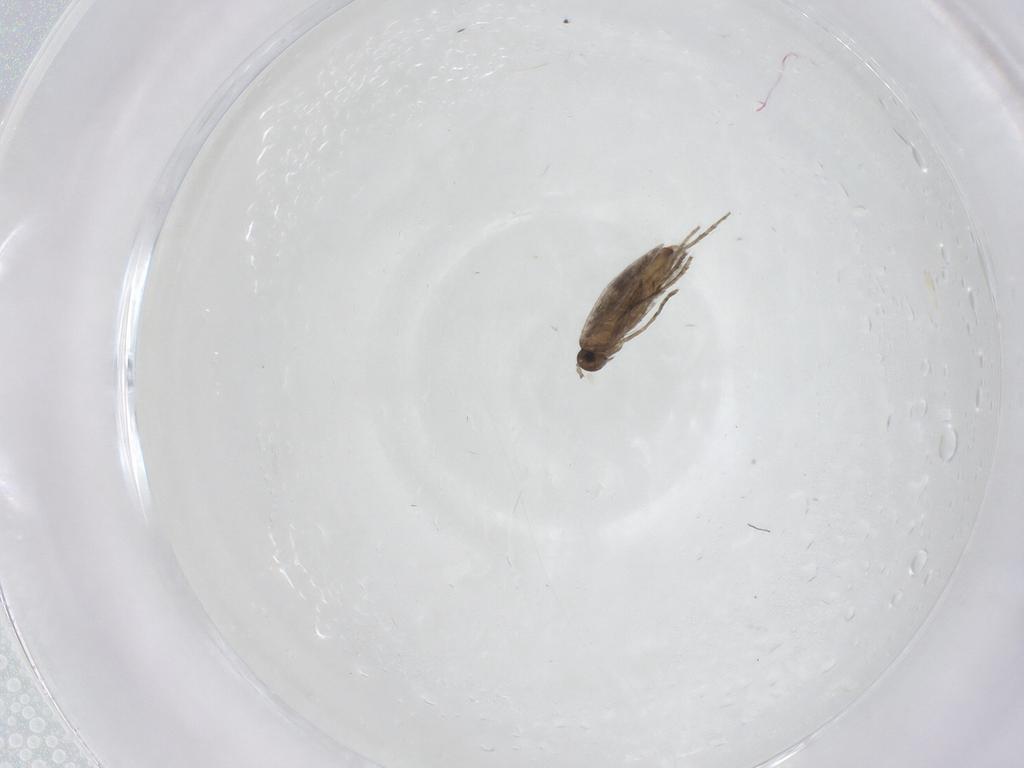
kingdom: Animalia
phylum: Arthropoda
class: Insecta
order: Lepidoptera
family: Heliozelidae
